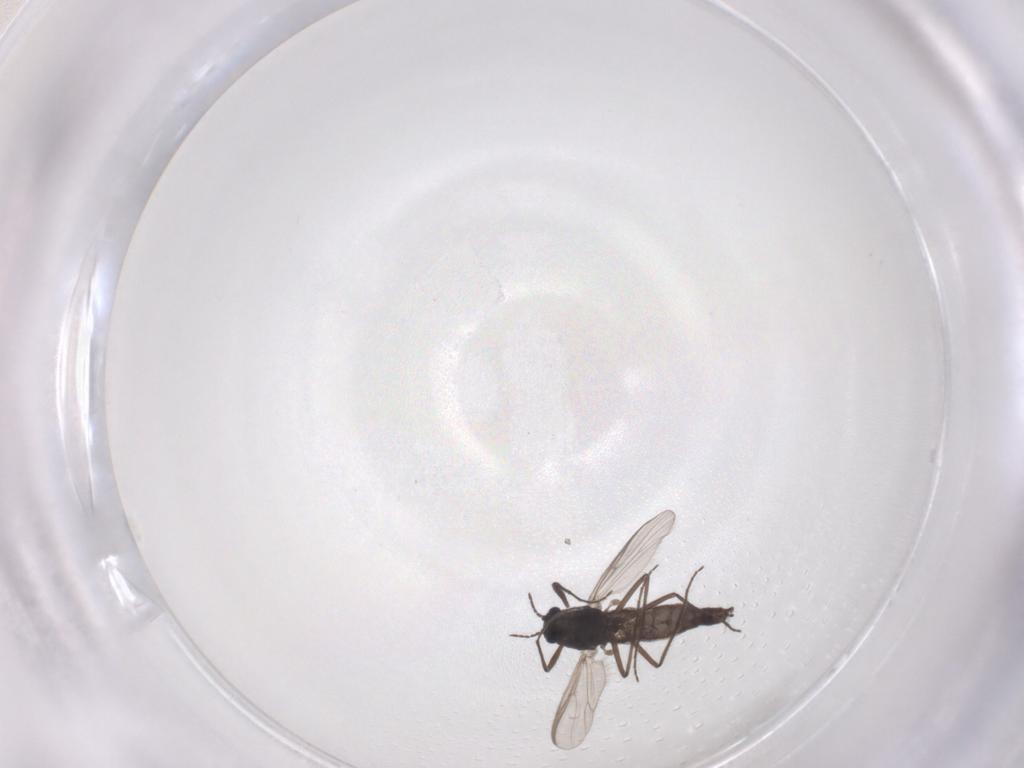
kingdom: Animalia
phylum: Arthropoda
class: Insecta
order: Diptera
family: Chironomidae
